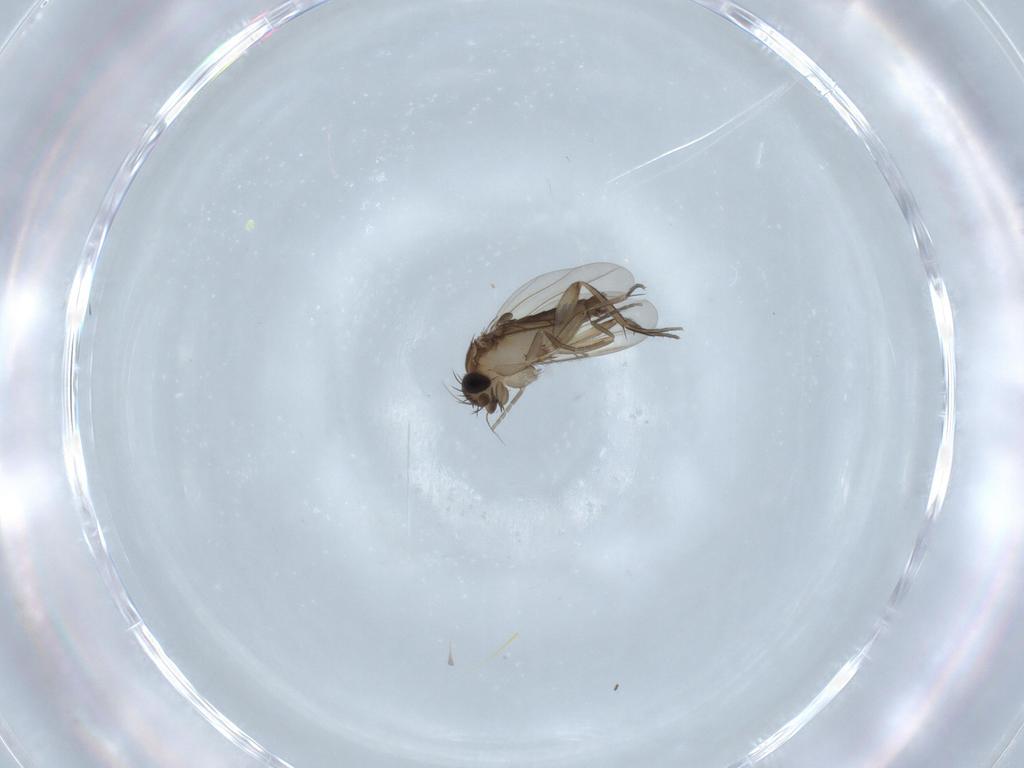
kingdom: Animalia
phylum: Arthropoda
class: Insecta
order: Diptera
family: Phoridae
